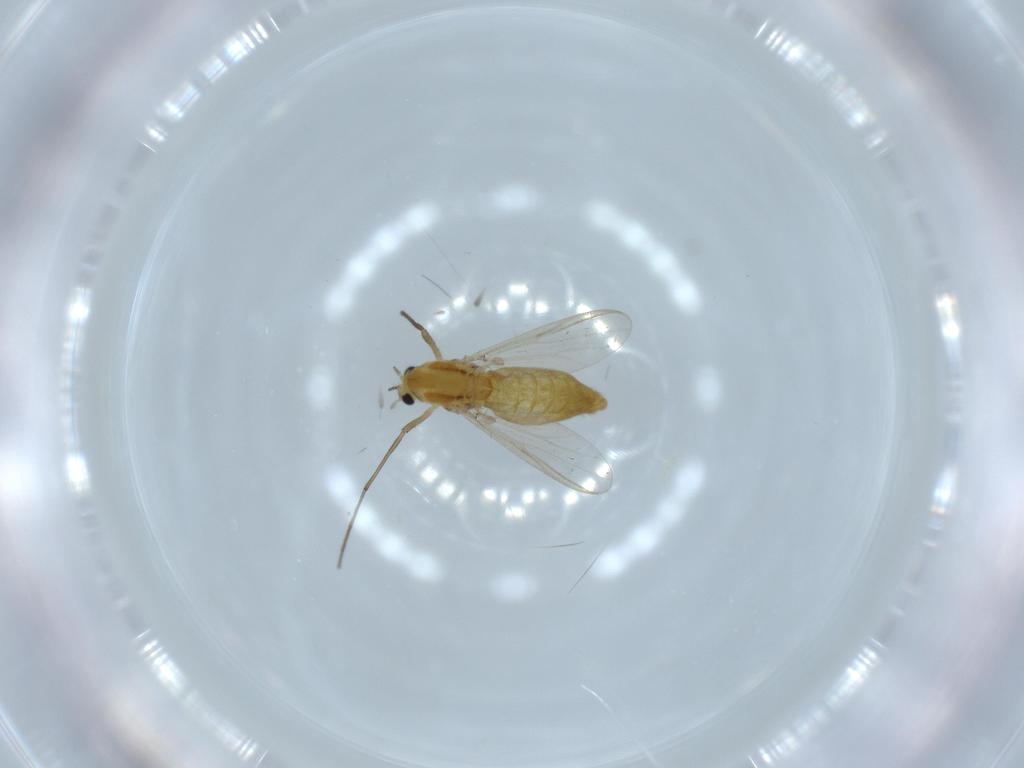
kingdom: Animalia
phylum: Arthropoda
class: Insecta
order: Diptera
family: Chironomidae
